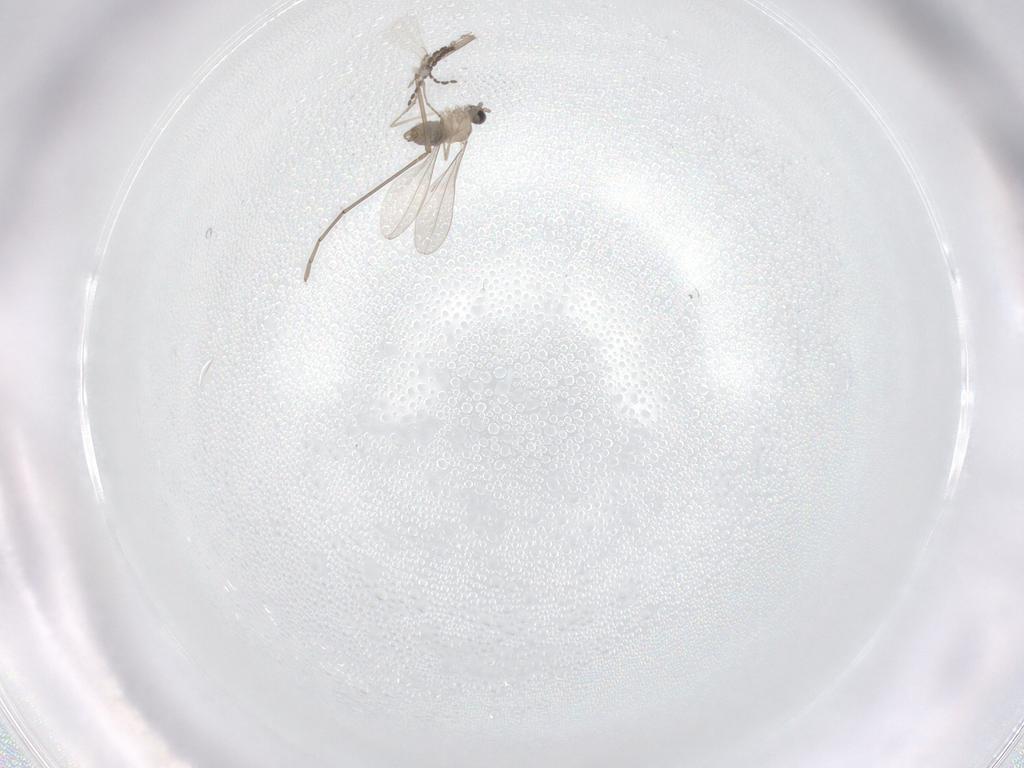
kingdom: Animalia
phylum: Arthropoda
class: Insecta
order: Diptera
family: Cecidomyiidae
